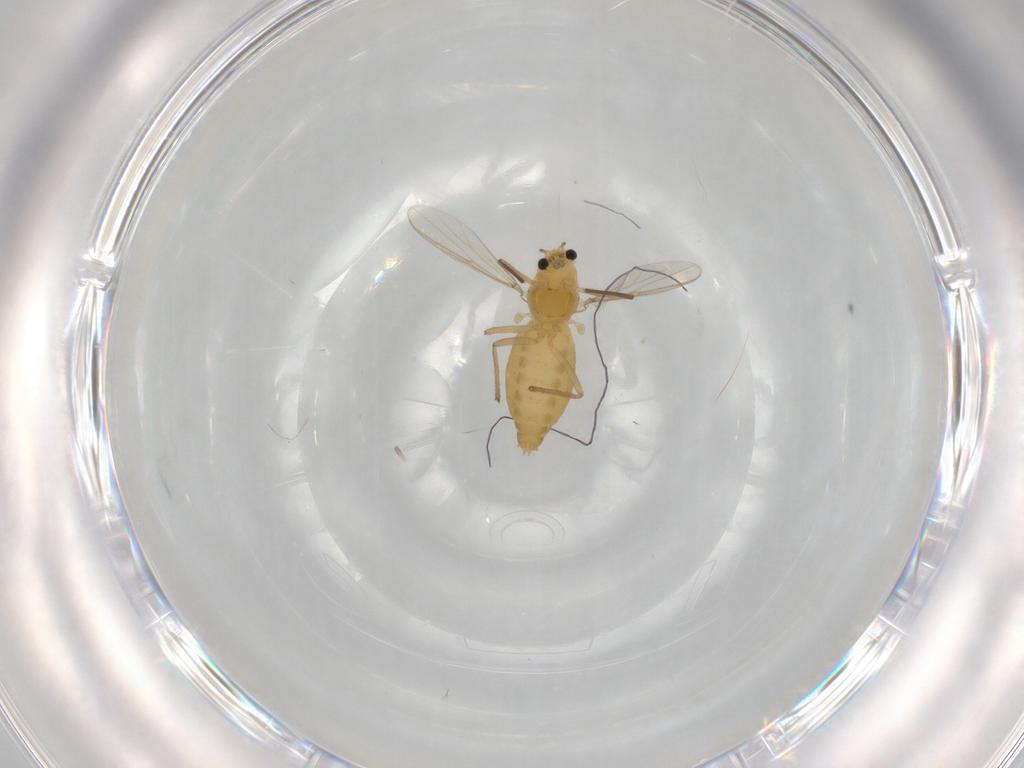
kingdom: Animalia
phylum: Arthropoda
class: Insecta
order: Diptera
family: Chironomidae
